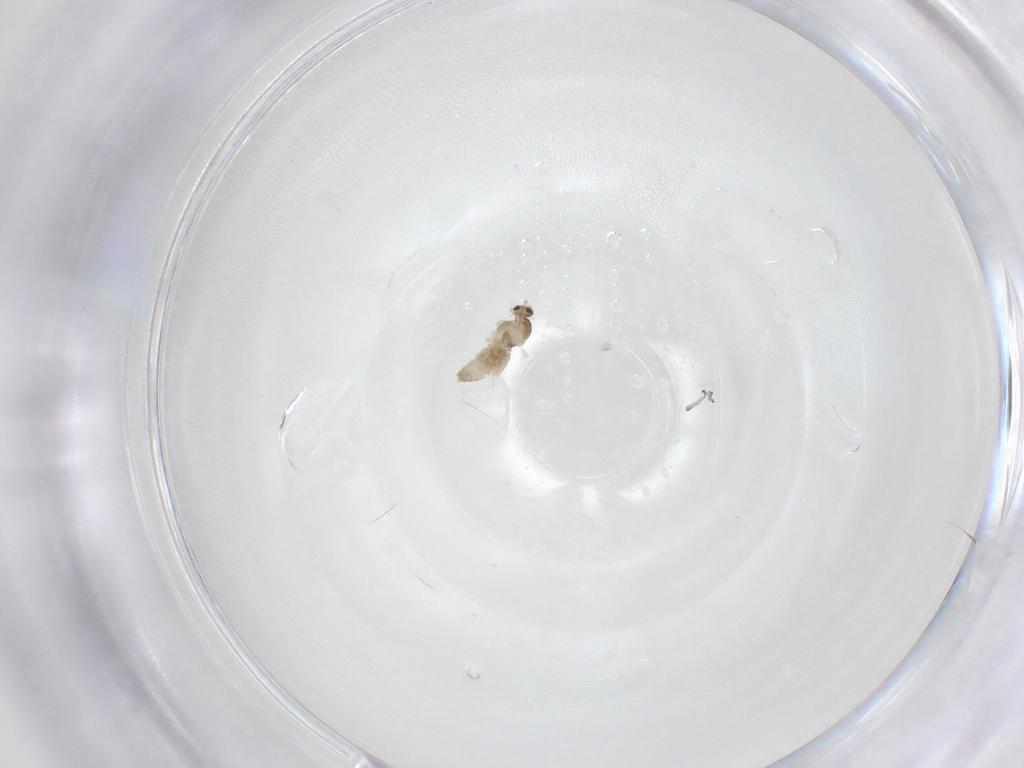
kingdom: Animalia
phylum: Arthropoda
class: Insecta
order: Diptera
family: Cecidomyiidae
